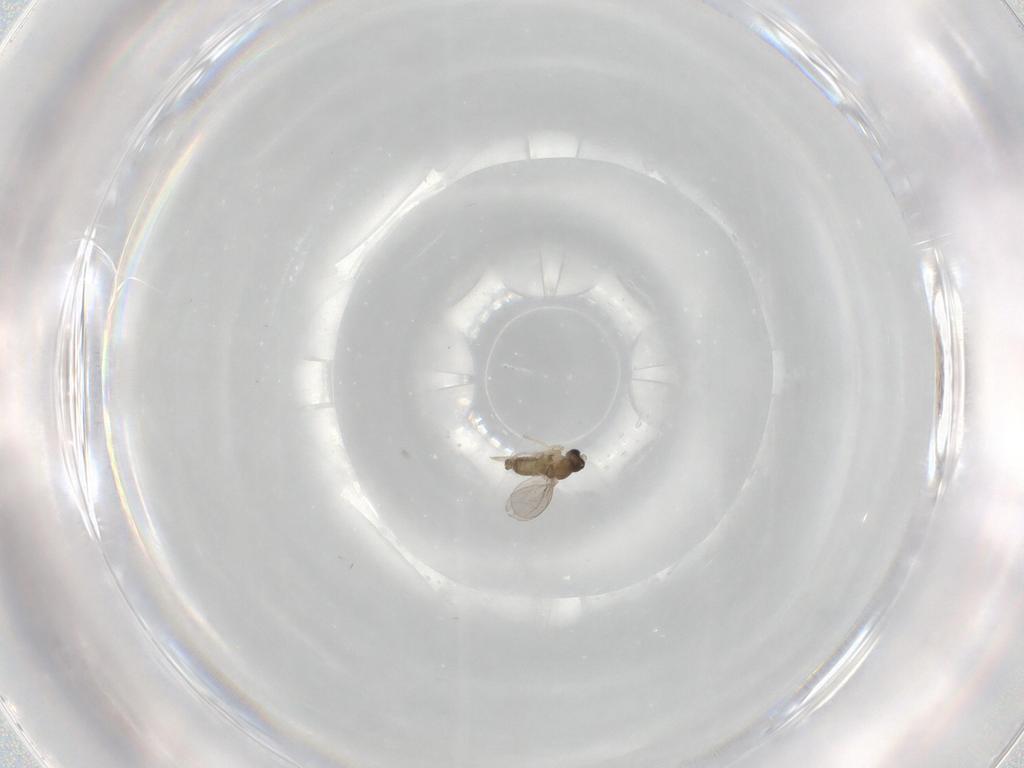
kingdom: Animalia
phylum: Arthropoda
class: Insecta
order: Diptera
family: Cecidomyiidae
